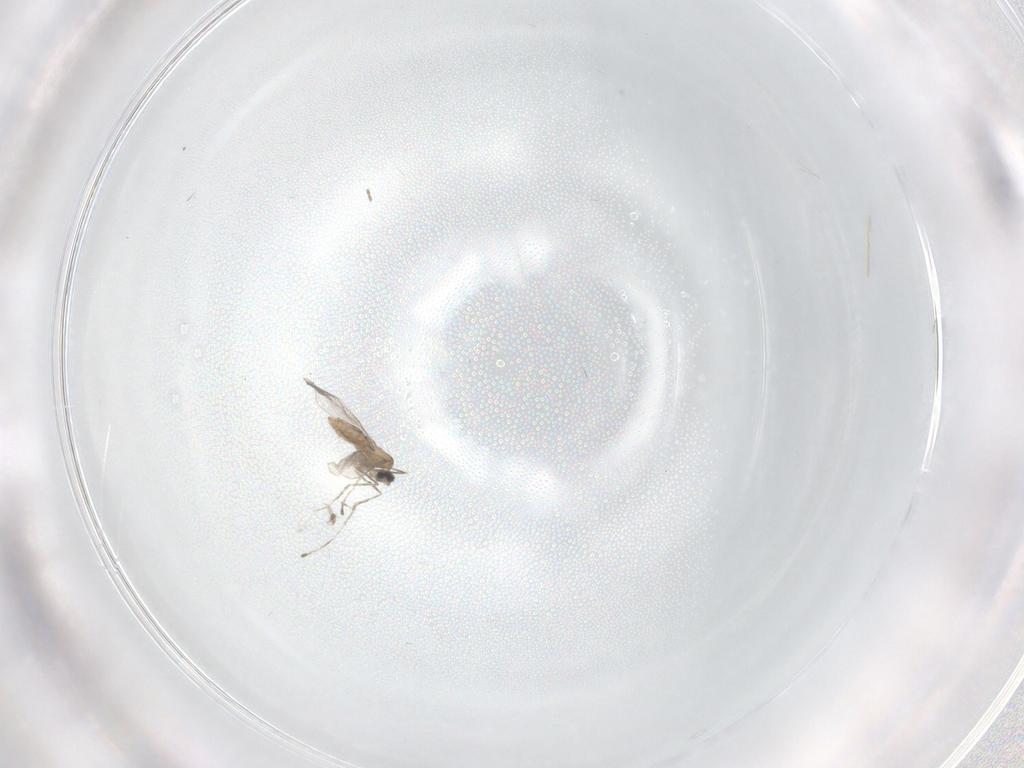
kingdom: Animalia
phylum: Arthropoda
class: Insecta
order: Diptera
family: Cecidomyiidae
